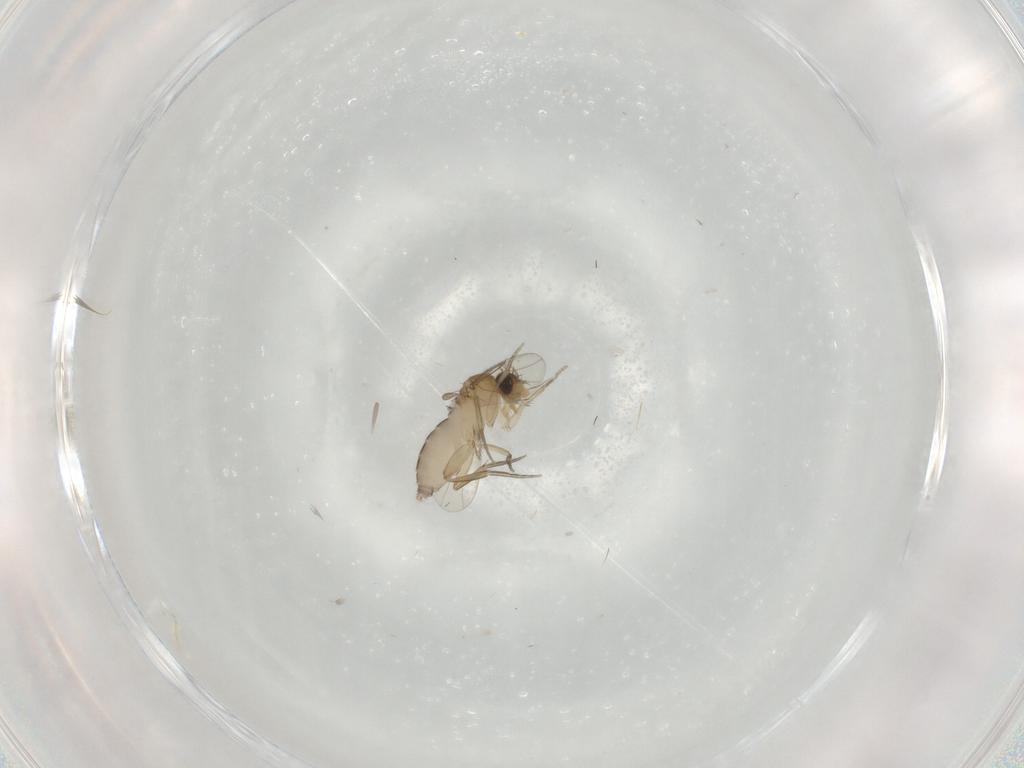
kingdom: Animalia
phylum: Arthropoda
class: Insecta
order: Diptera
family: Phoridae
